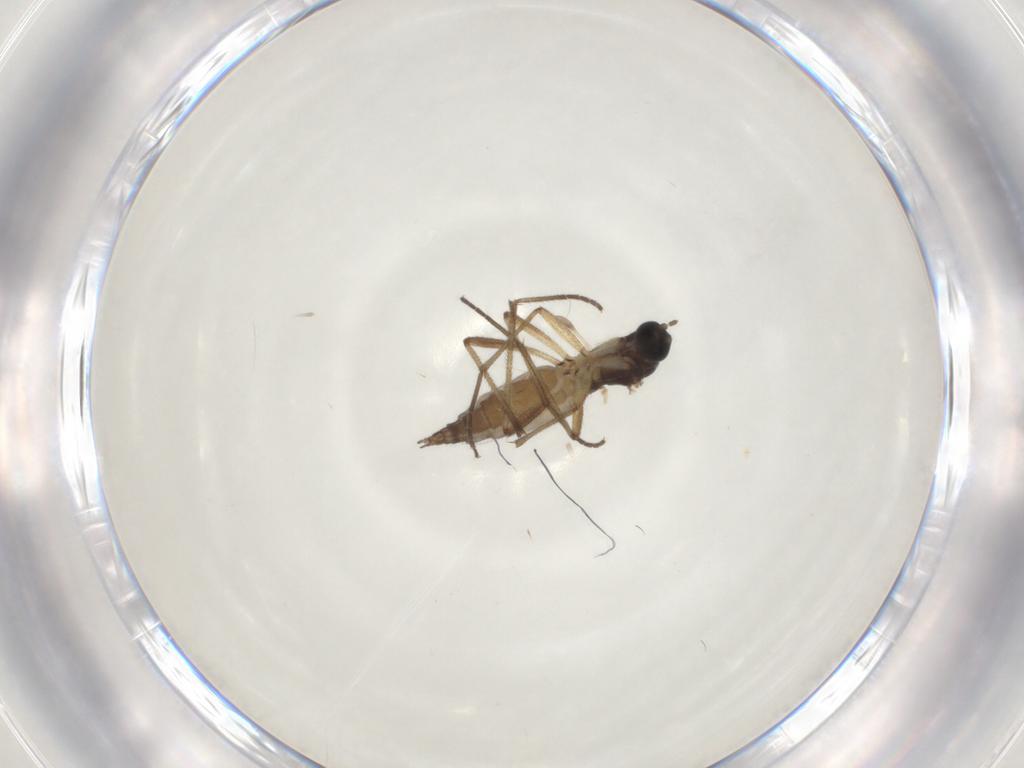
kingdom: Animalia
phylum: Arthropoda
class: Insecta
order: Diptera
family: Sciaridae
